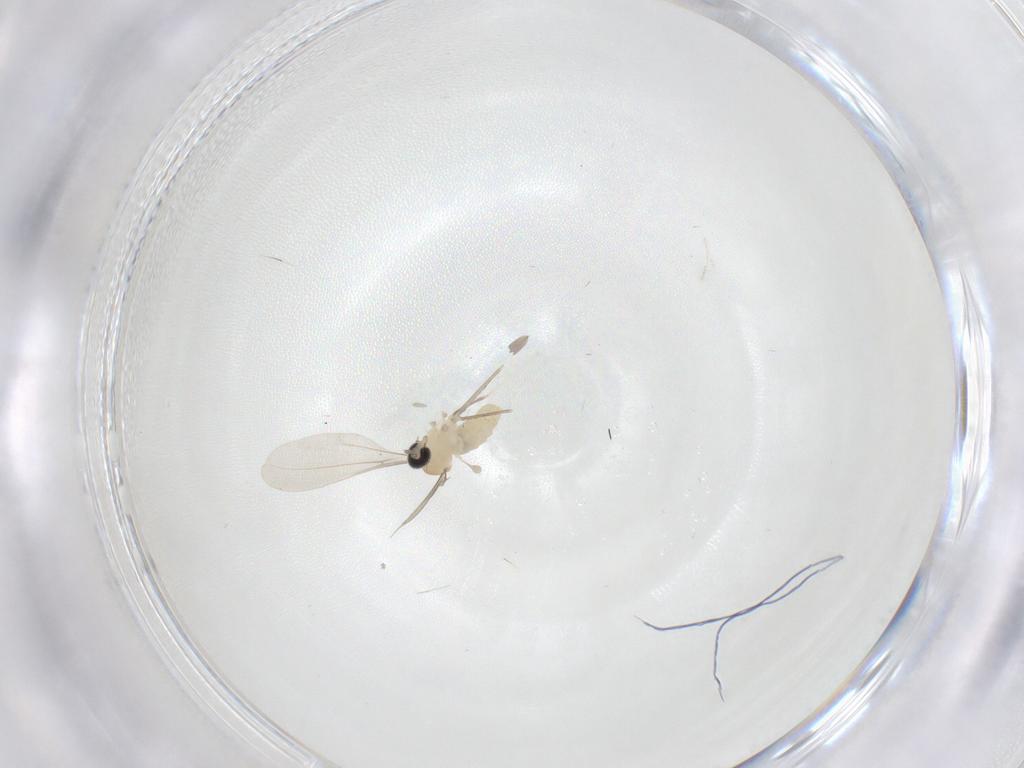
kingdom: Animalia
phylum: Arthropoda
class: Insecta
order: Diptera
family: Cecidomyiidae
